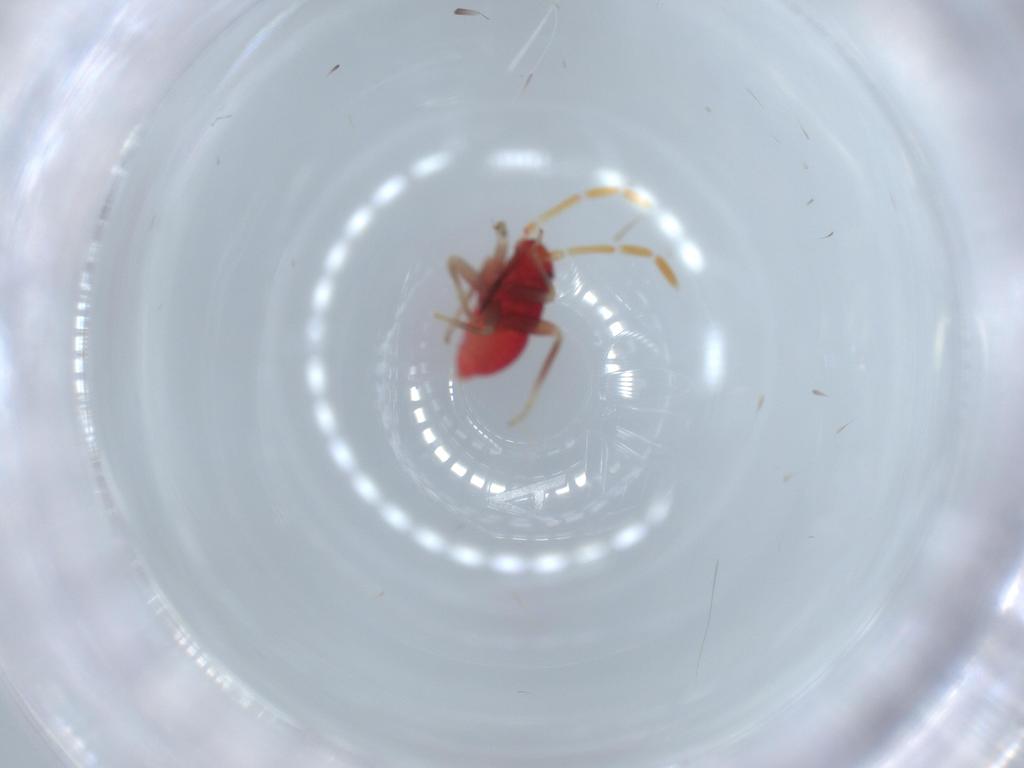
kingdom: Animalia
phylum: Arthropoda
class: Insecta
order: Hemiptera
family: Miridae
